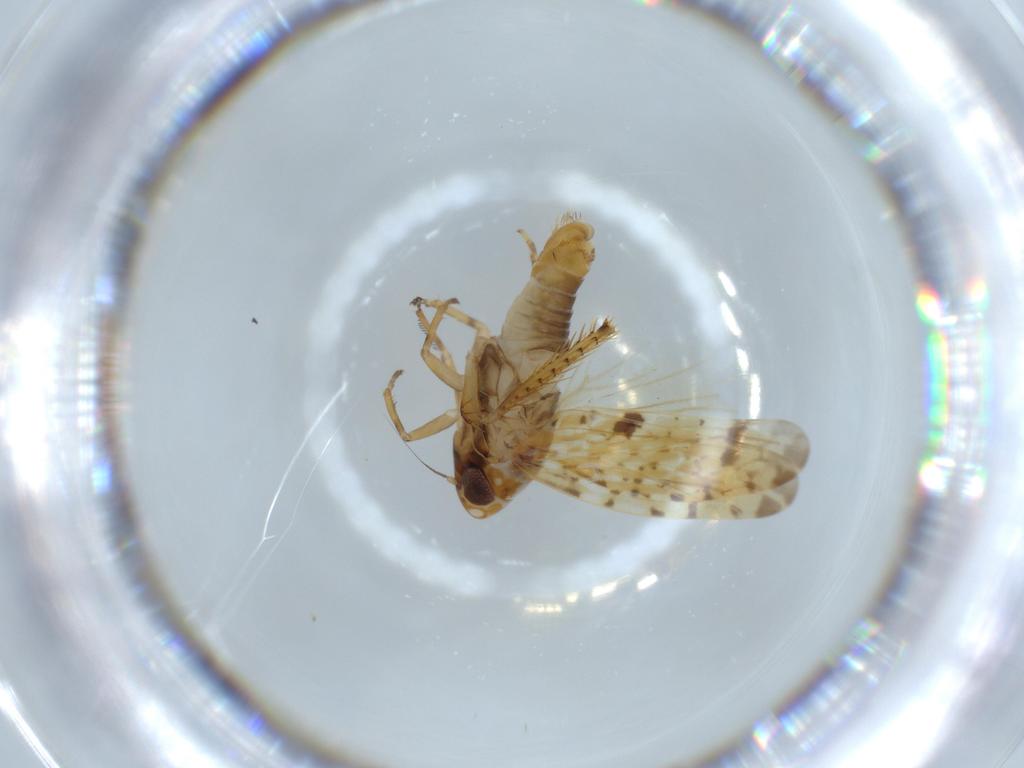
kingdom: Animalia
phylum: Arthropoda
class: Insecta
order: Hemiptera
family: Cicadellidae
